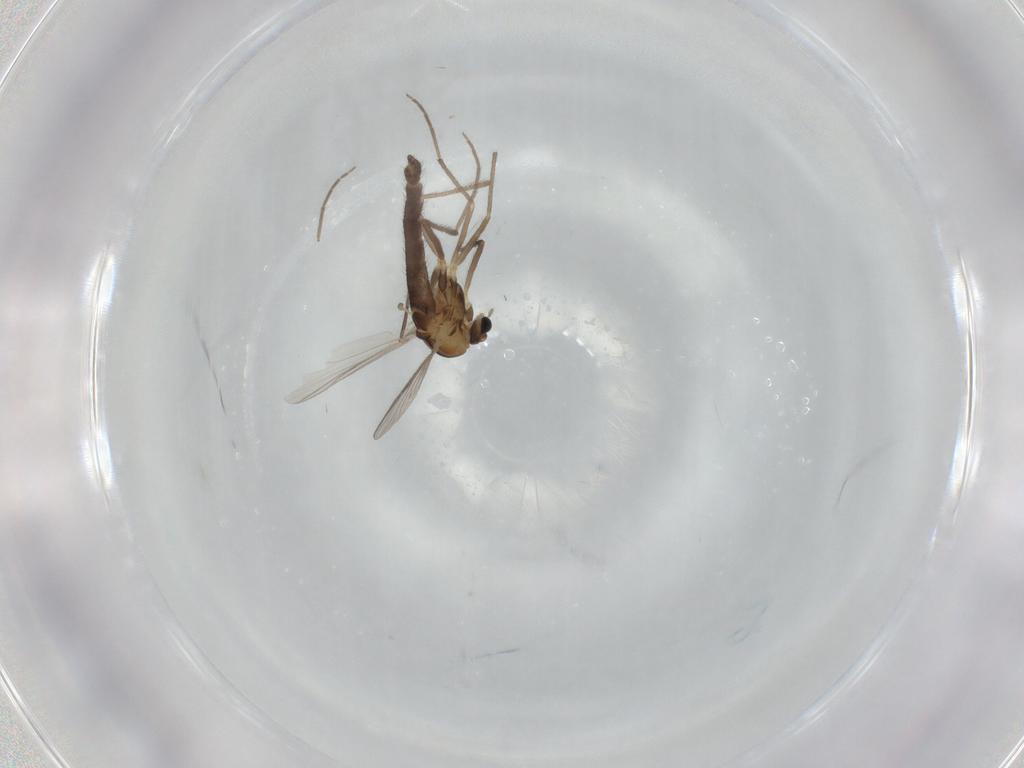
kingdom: Animalia
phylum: Arthropoda
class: Insecta
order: Diptera
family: Chironomidae
